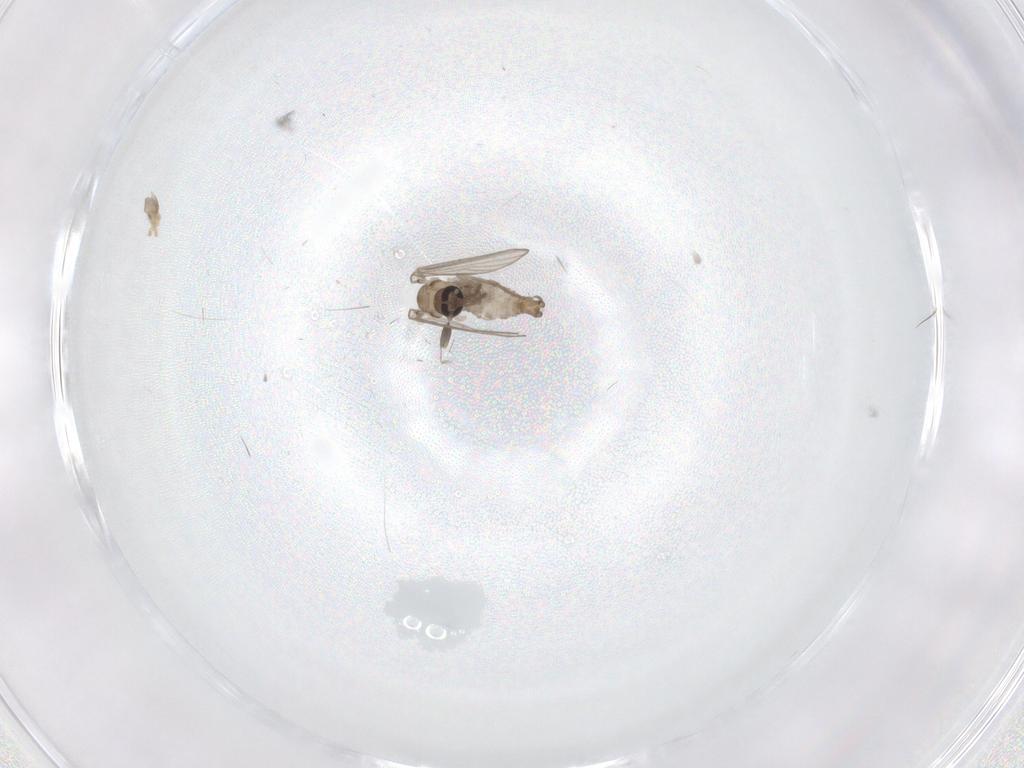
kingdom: Animalia
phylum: Arthropoda
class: Insecta
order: Diptera
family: Psychodidae
